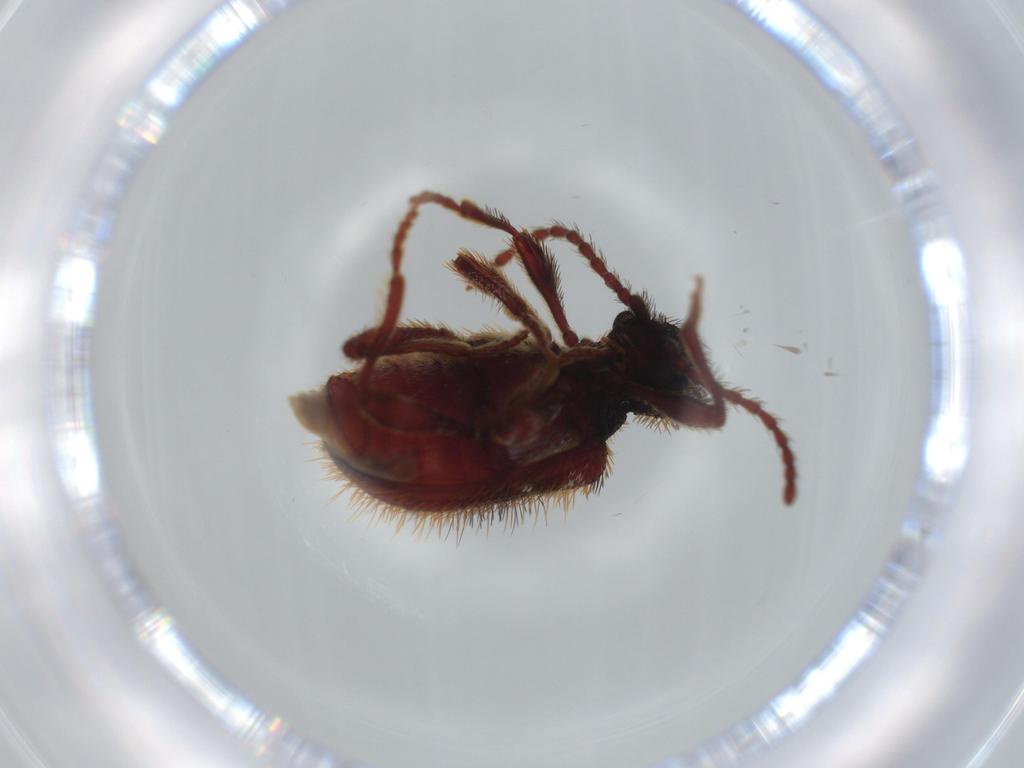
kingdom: Animalia
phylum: Arthropoda
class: Insecta
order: Coleoptera
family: Ptinidae
